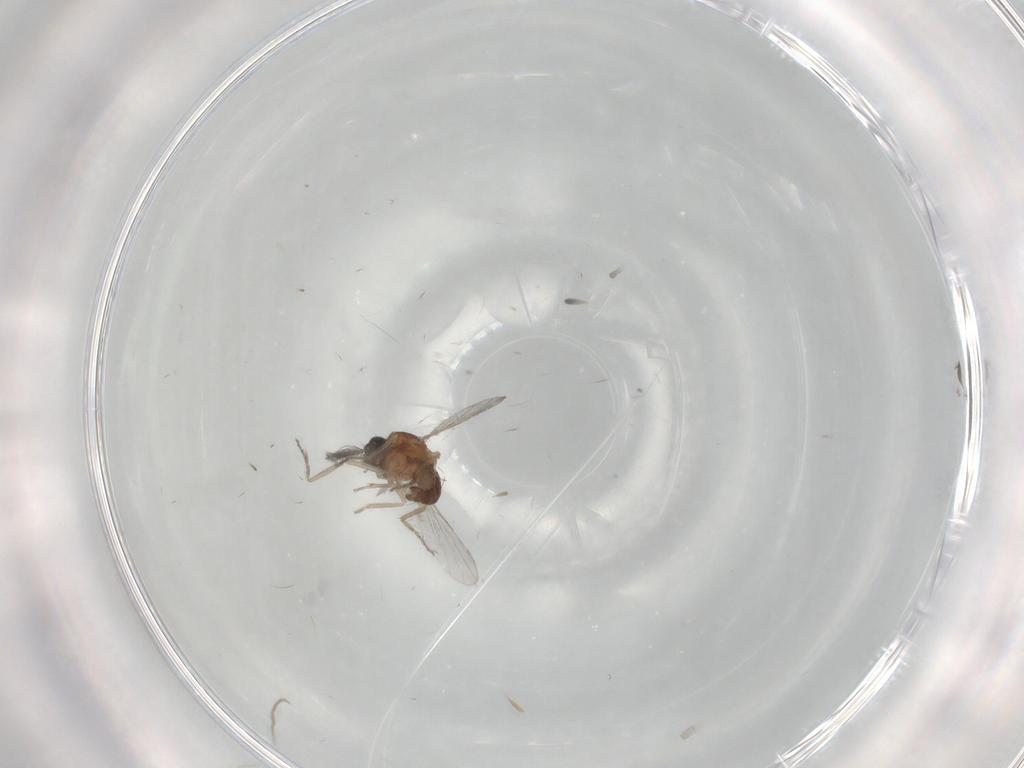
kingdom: Animalia
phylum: Arthropoda
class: Insecta
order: Diptera
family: Ceratopogonidae
